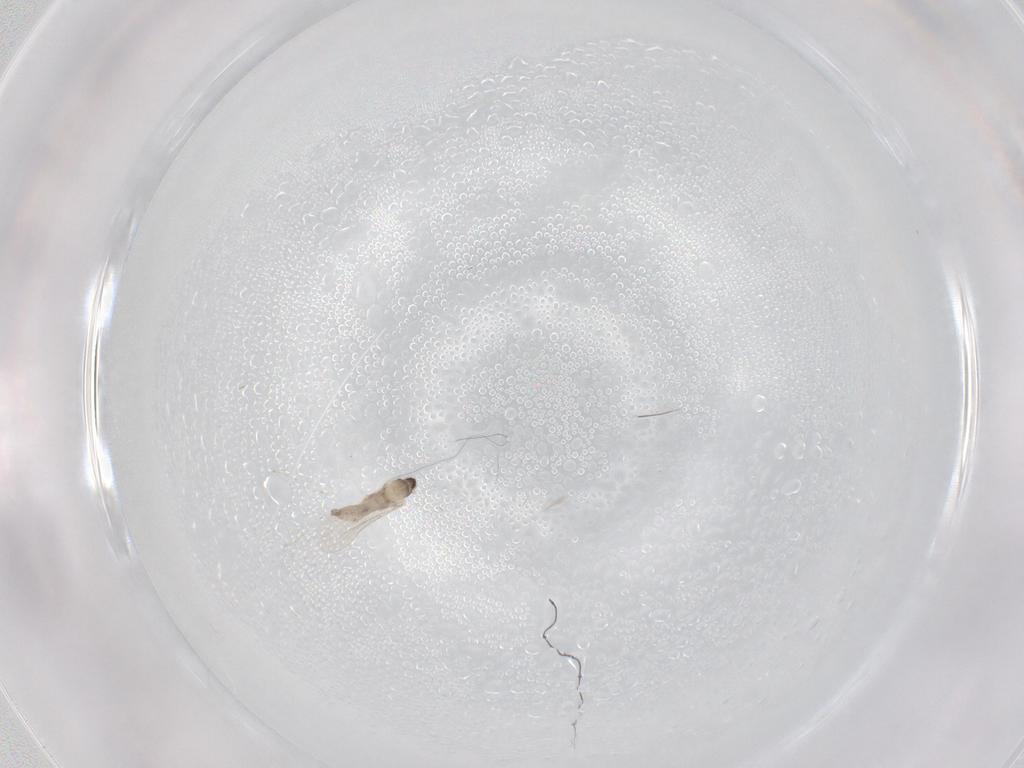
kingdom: Animalia
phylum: Arthropoda
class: Insecta
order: Diptera
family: Cecidomyiidae
